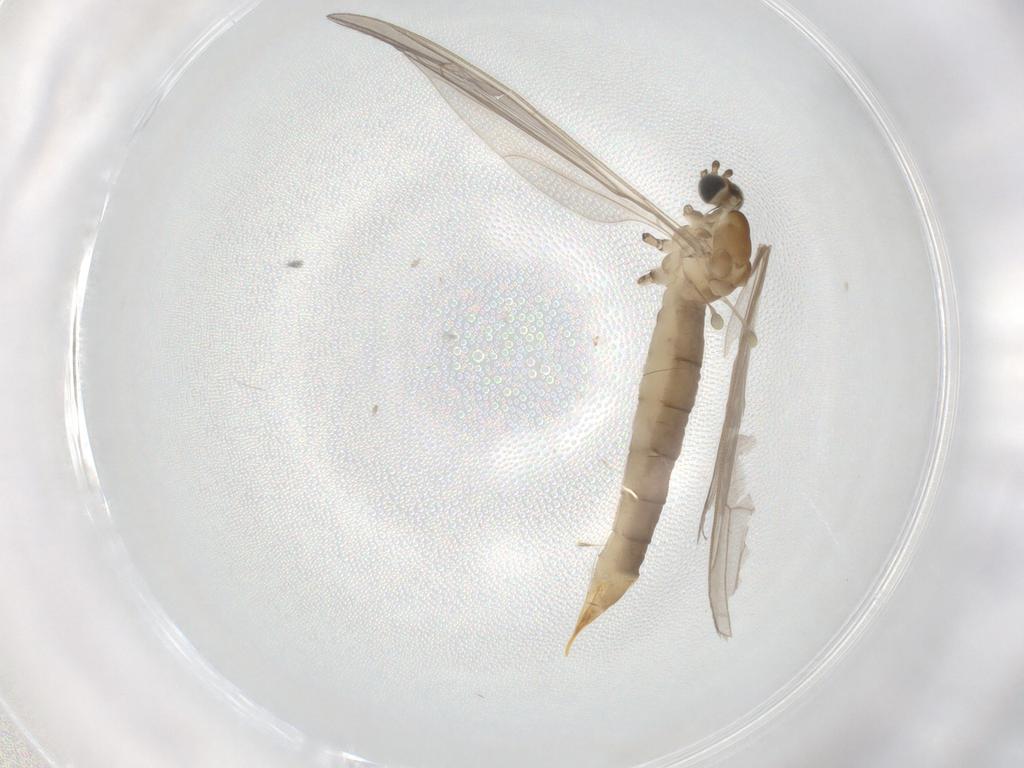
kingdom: Animalia
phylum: Arthropoda
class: Insecta
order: Diptera
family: Limoniidae
